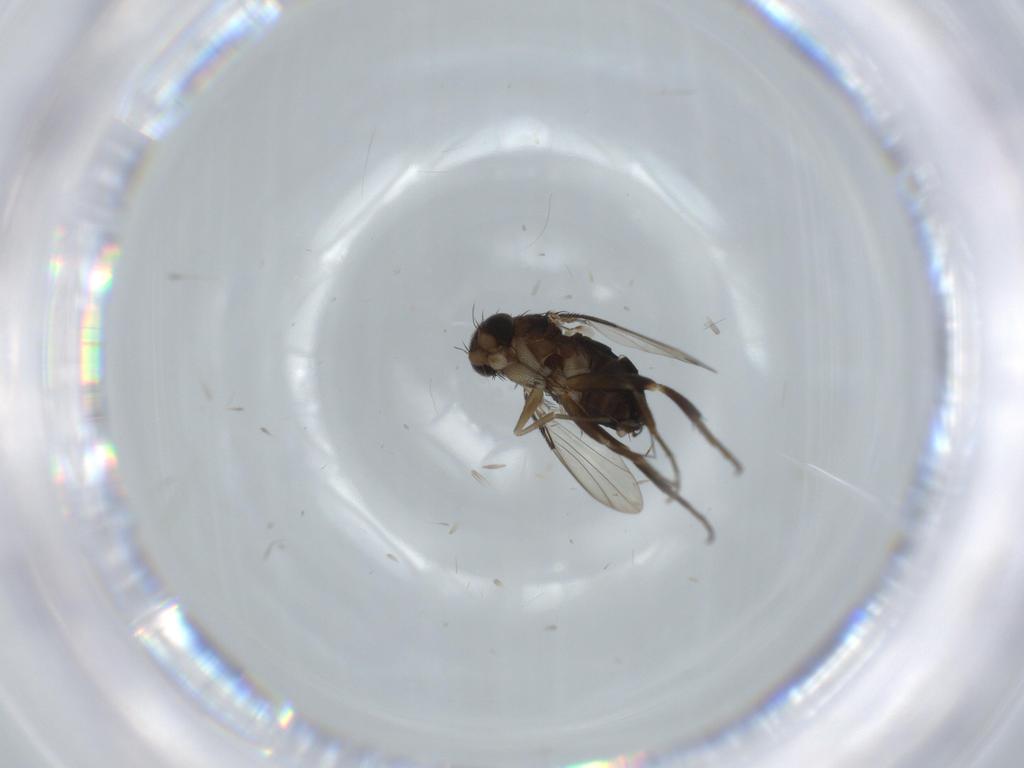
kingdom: Animalia
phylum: Arthropoda
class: Insecta
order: Diptera
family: Phoridae
